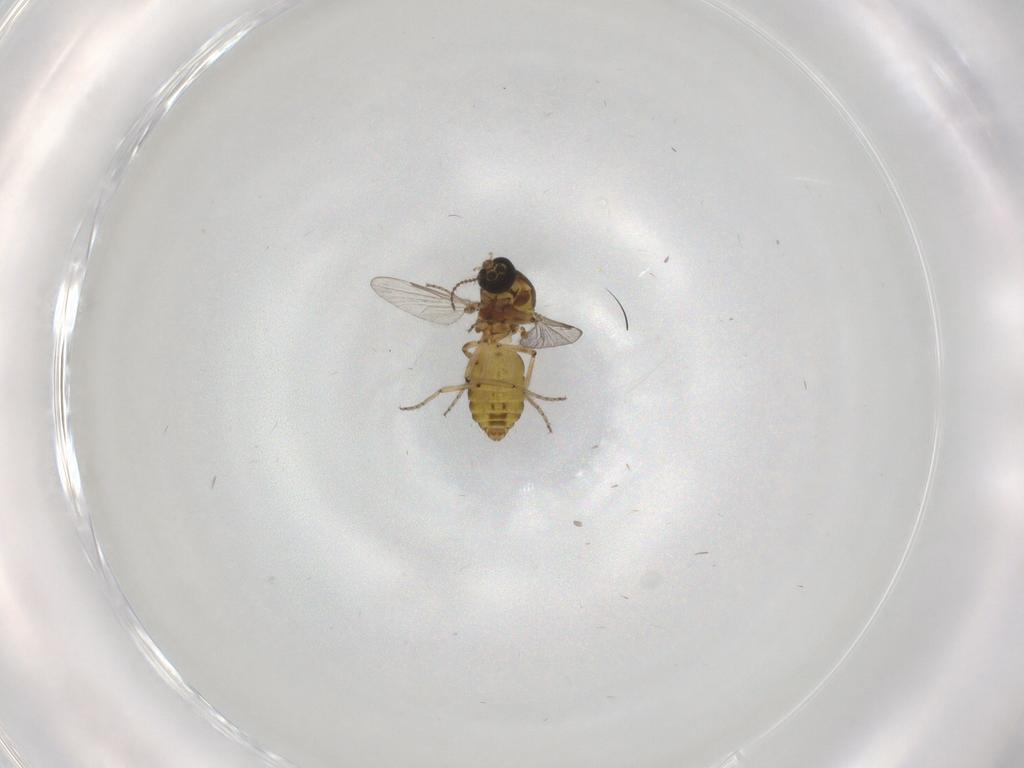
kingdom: Animalia
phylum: Arthropoda
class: Insecta
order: Diptera
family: Ceratopogonidae
